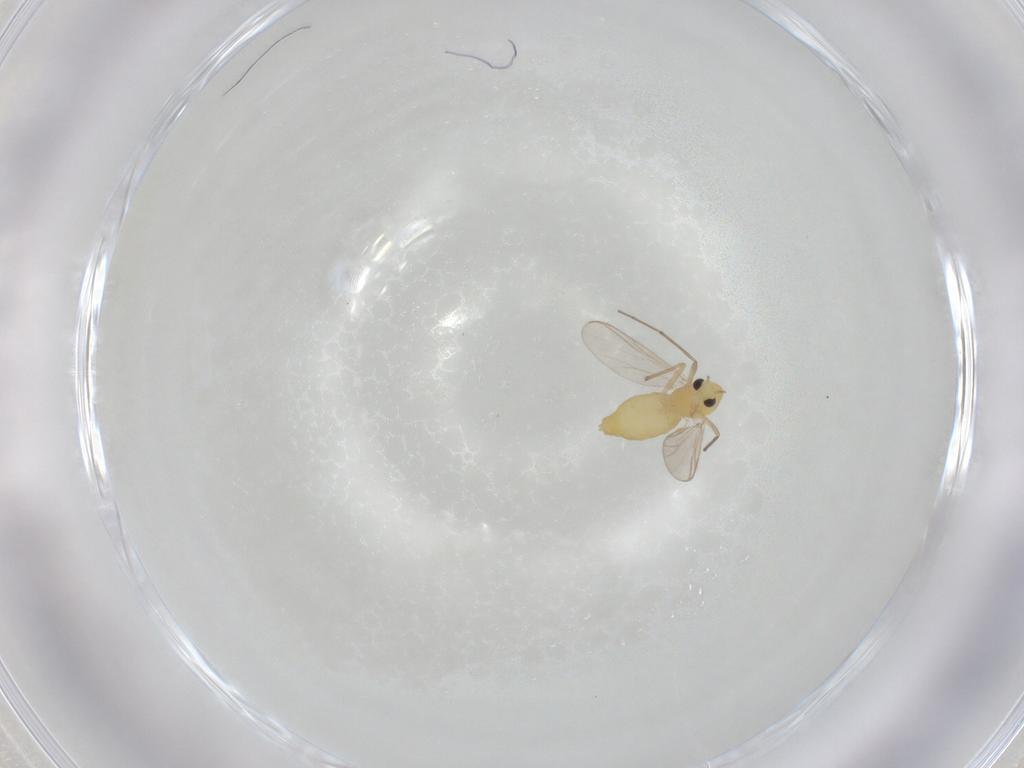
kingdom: Animalia
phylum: Arthropoda
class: Insecta
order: Diptera
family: Chironomidae
